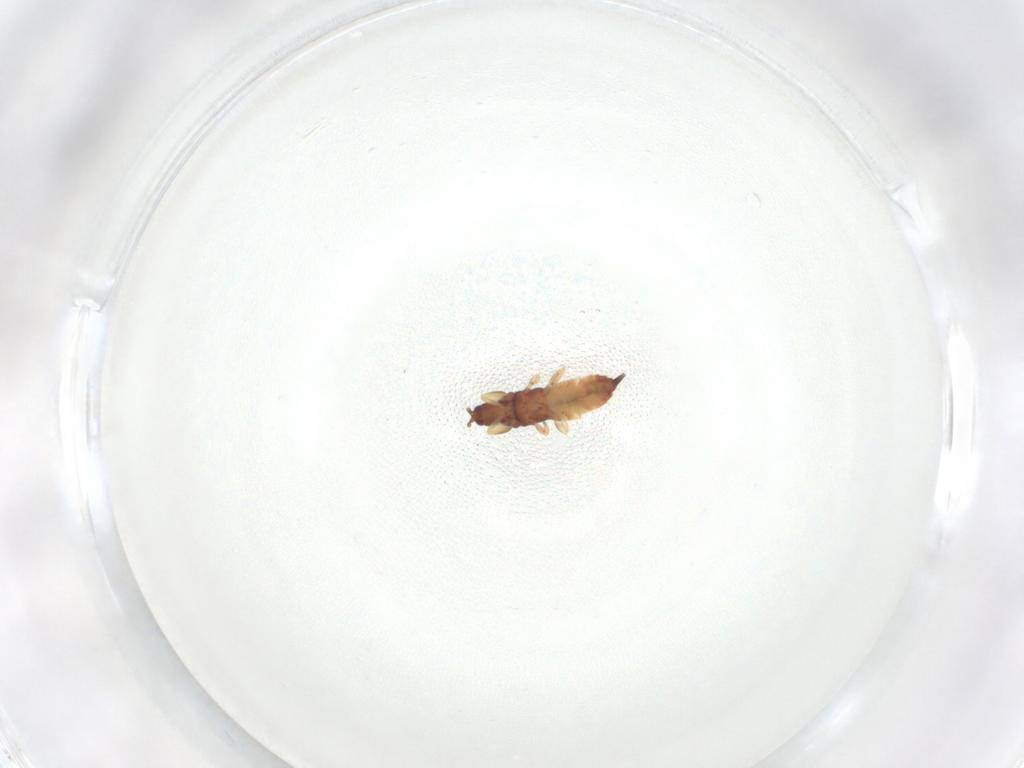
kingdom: Animalia
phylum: Arthropoda
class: Insecta
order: Thysanoptera
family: Phlaeothripidae
